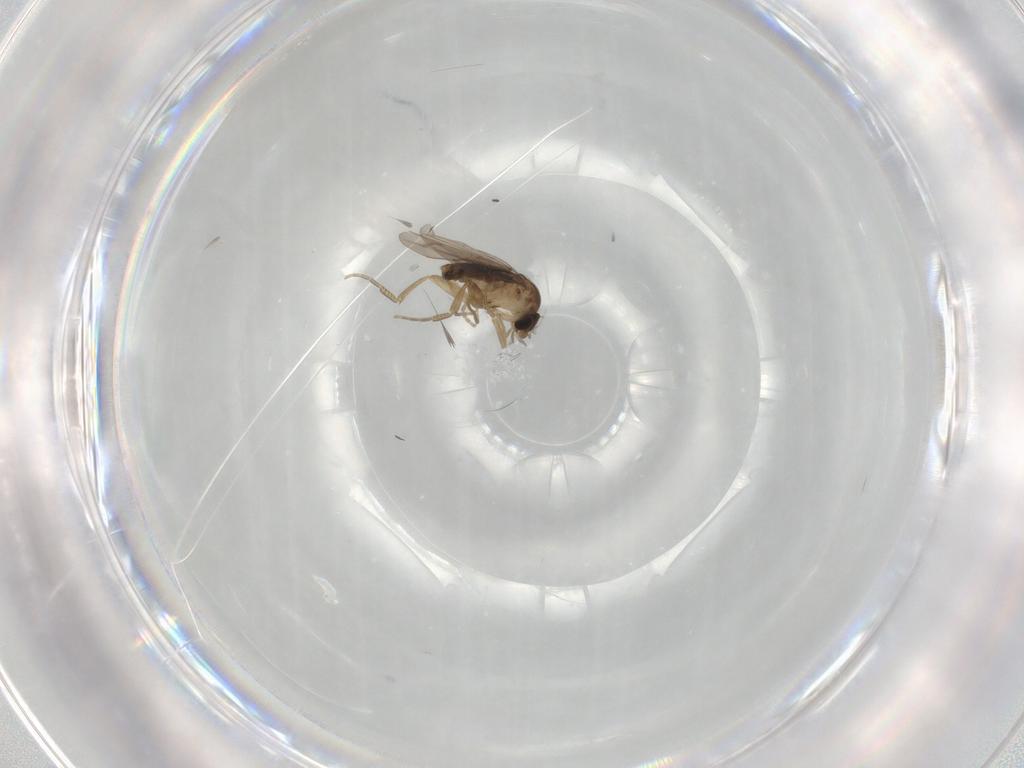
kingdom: Animalia
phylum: Arthropoda
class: Insecta
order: Diptera
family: Phoridae
